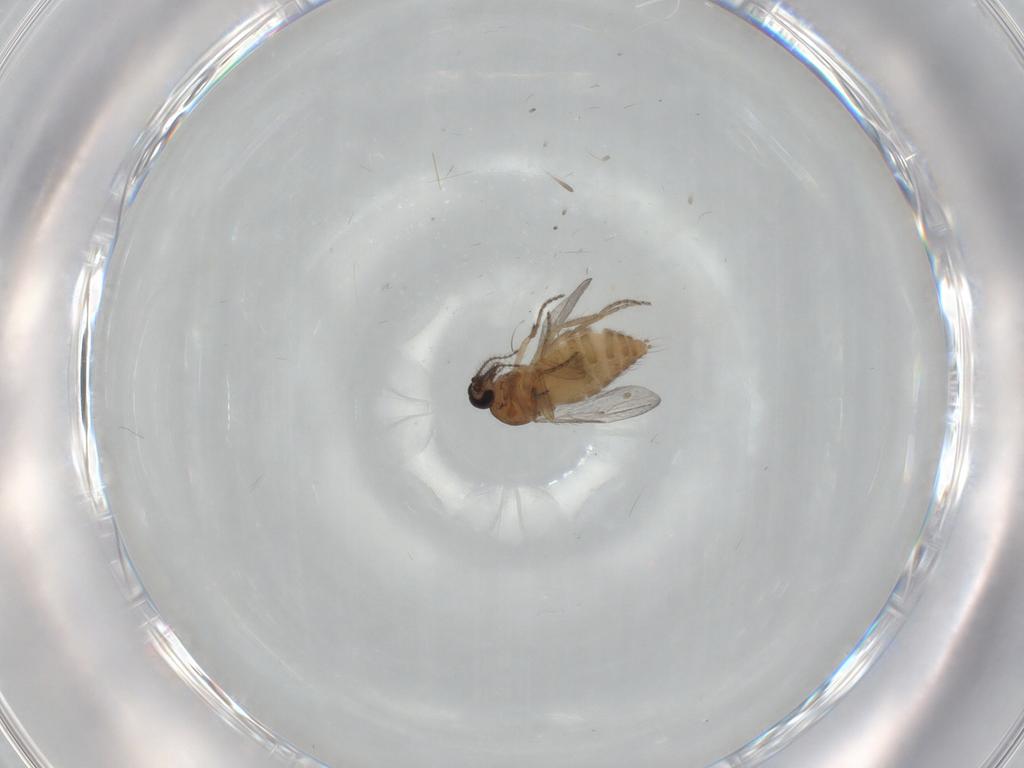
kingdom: Animalia
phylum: Arthropoda
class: Insecta
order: Diptera
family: Ceratopogonidae
